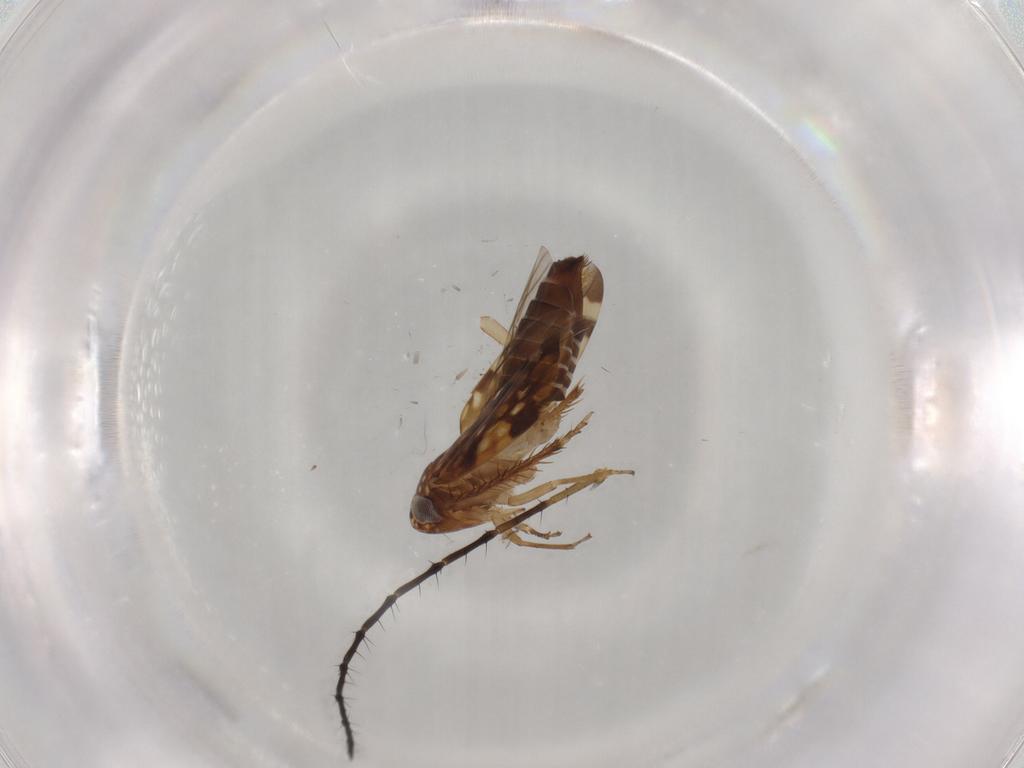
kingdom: Animalia
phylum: Arthropoda
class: Insecta
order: Hemiptera
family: Cicadellidae
